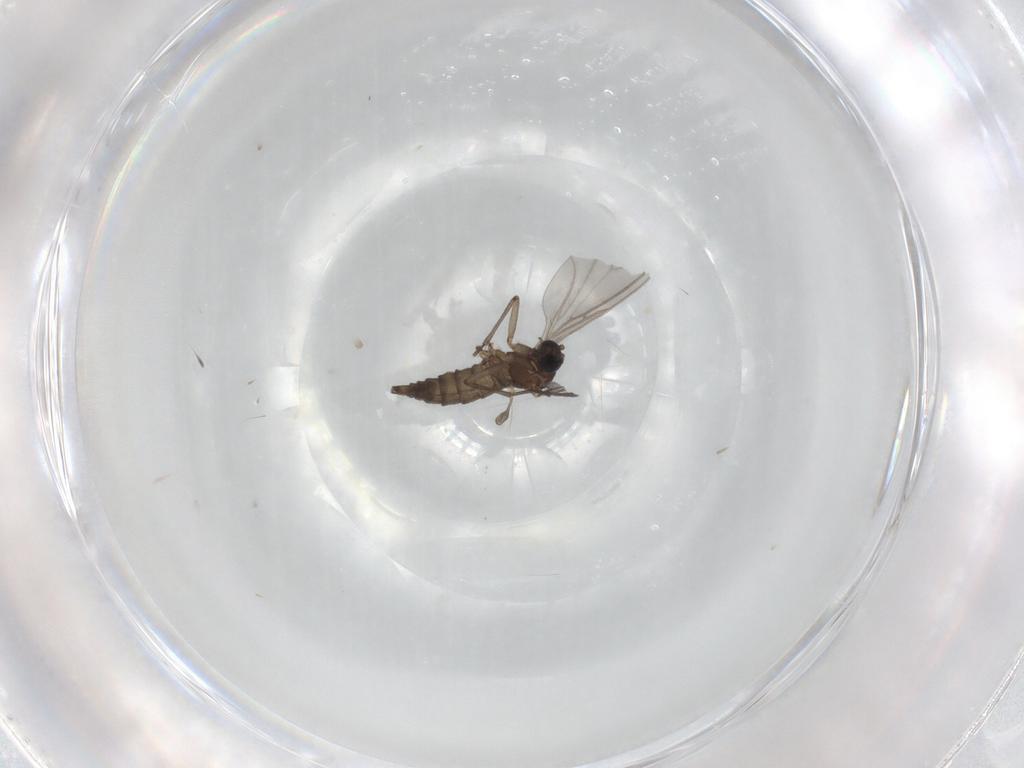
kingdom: Animalia
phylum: Arthropoda
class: Insecta
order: Diptera
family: Sciaridae
